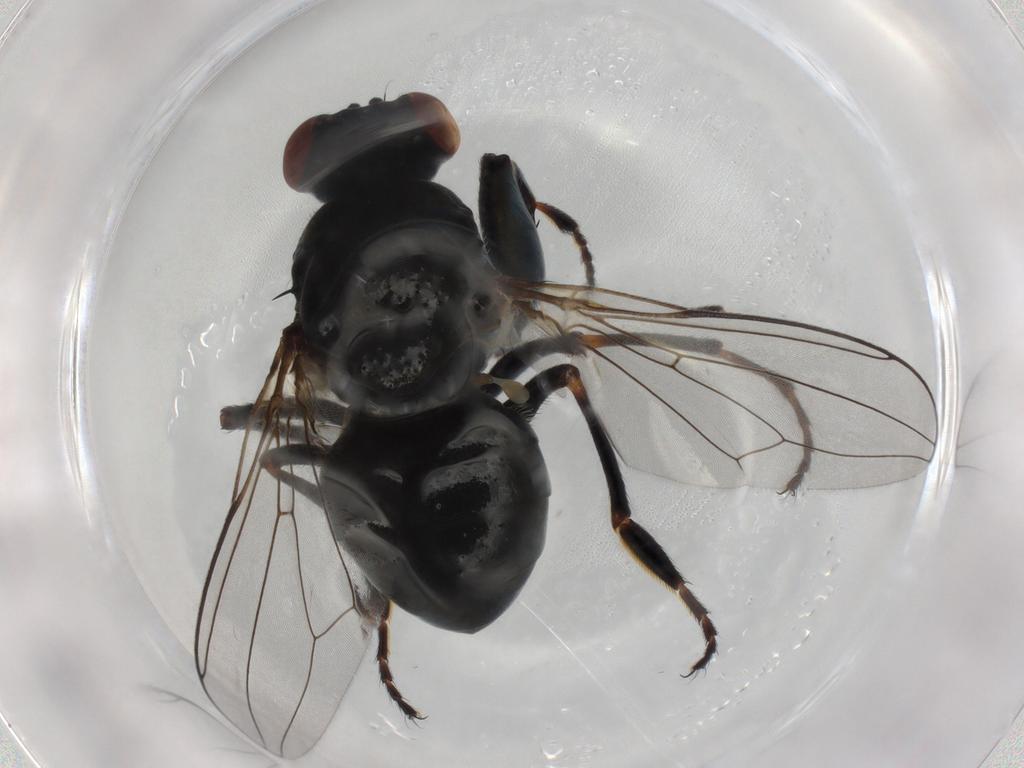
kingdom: Animalia
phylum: Arthropoda
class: Insecta
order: Diptera
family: Ephydridae
